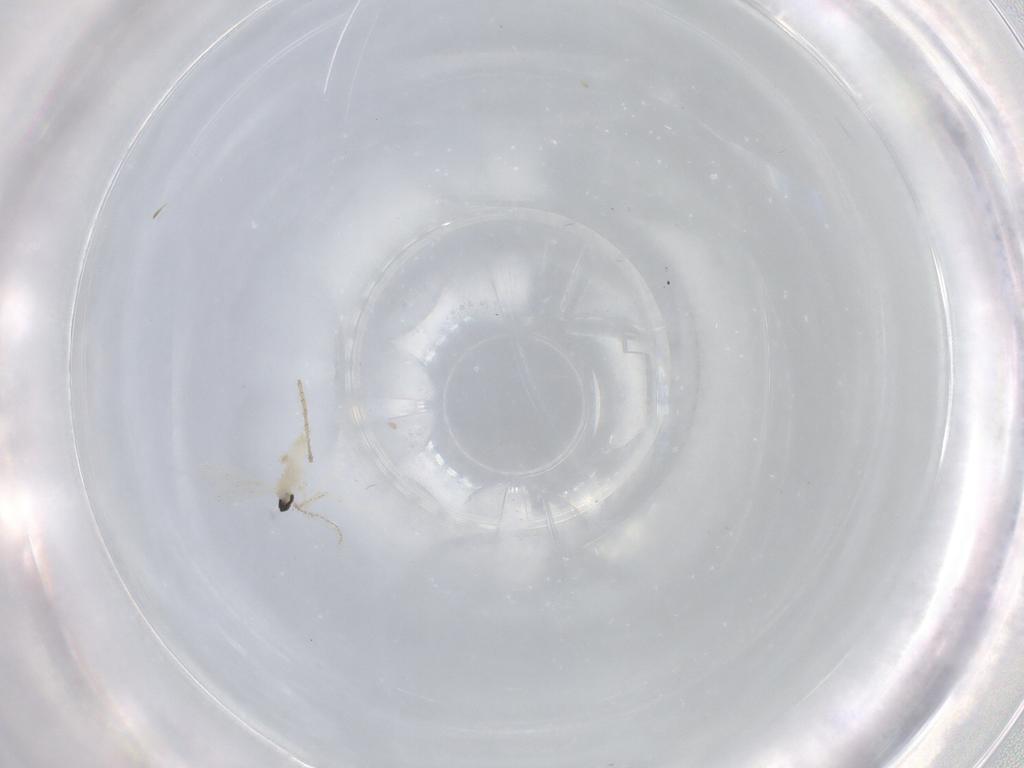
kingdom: Animalia
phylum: Arthropoda
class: Insecta
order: Diptera
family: Cecidomyiidae
